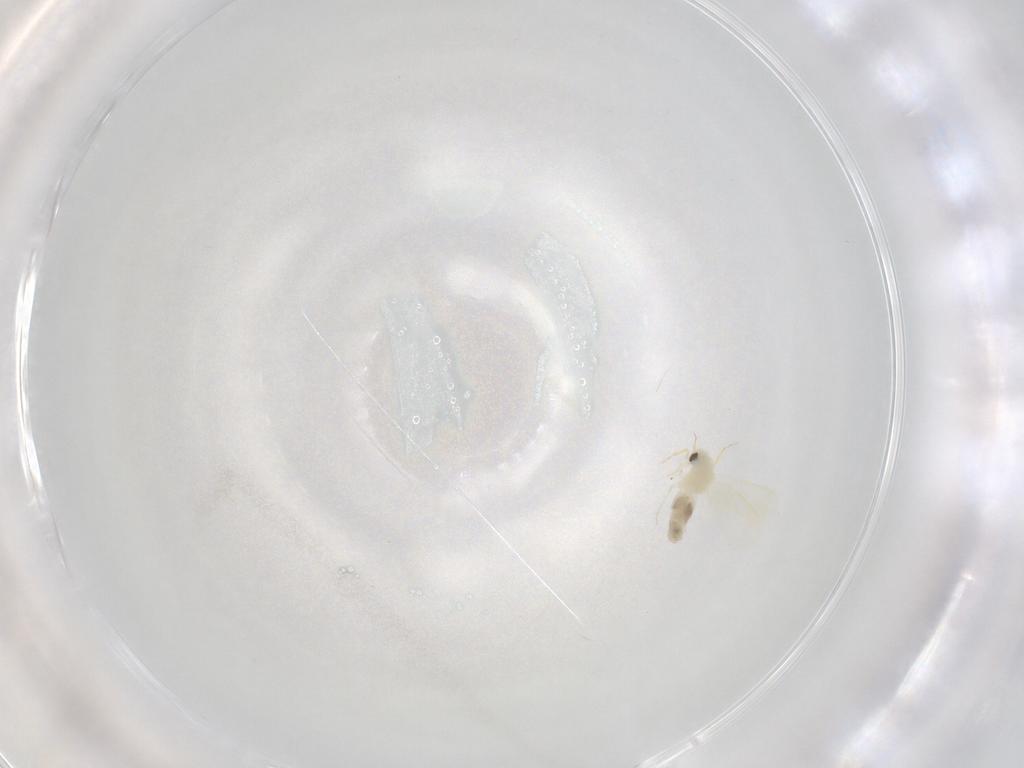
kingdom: Animalia
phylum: Arthropoda
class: Insecta
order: Hemiptera
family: Aleyrodidae
